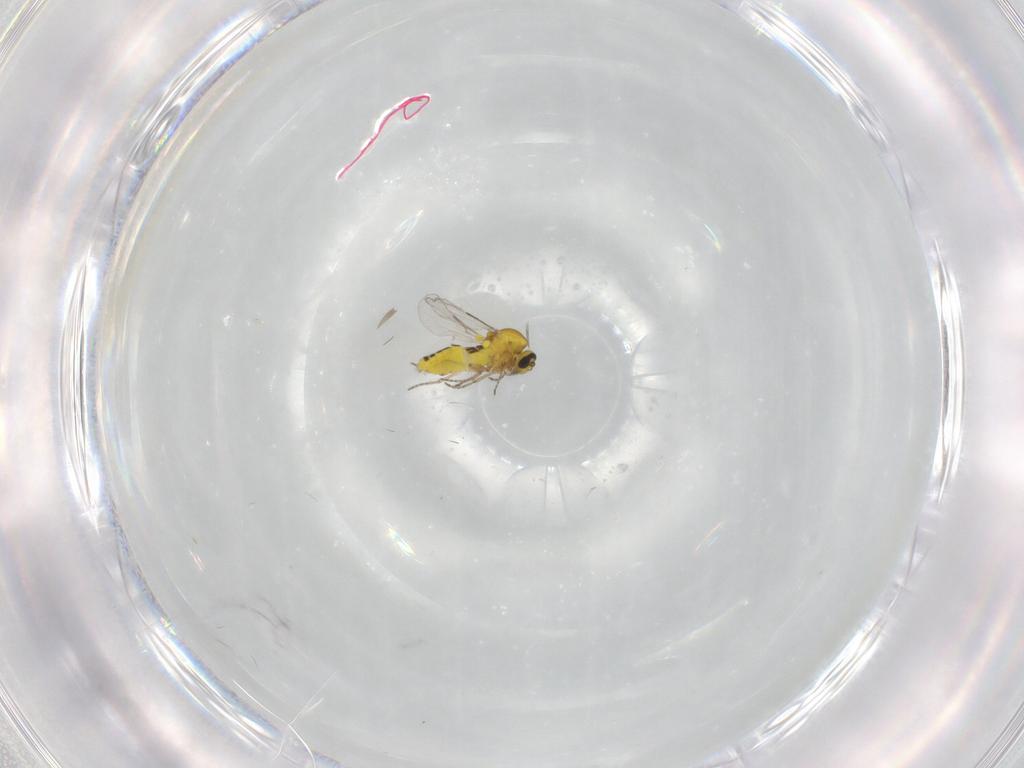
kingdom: Animalia
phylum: Arthropoda
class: Insecta
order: Diptera
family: Ceratopogonidae
